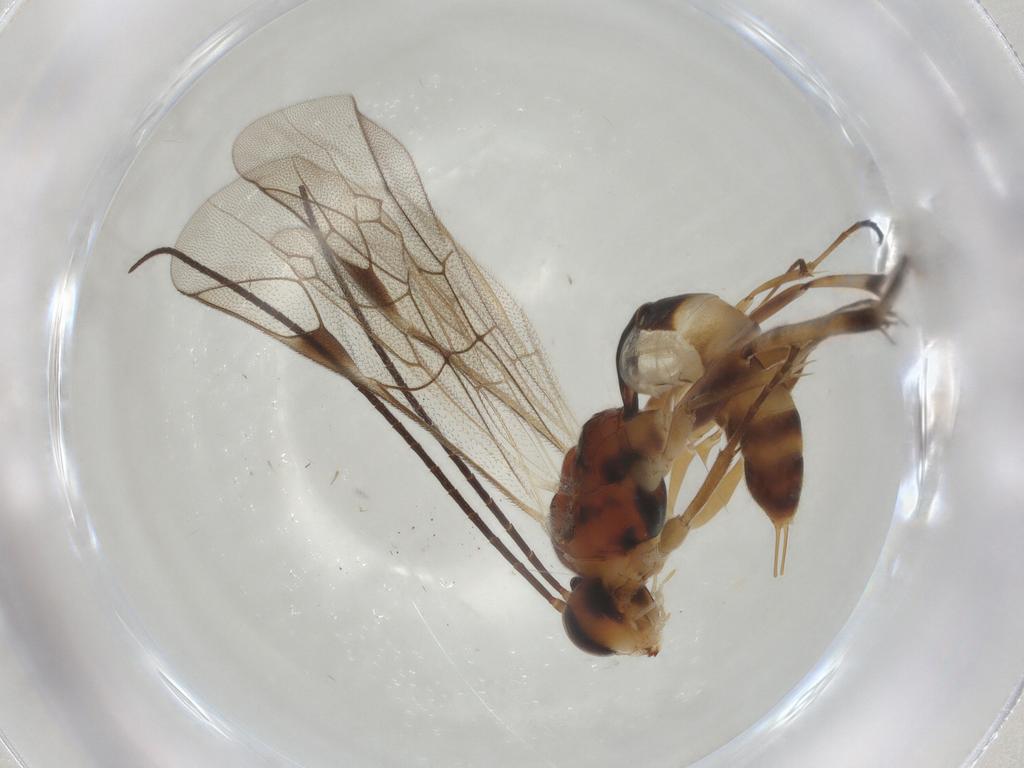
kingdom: Animalia
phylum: Arthropoda
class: Insecta
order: Hymenoptera
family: Ichneumonidae
